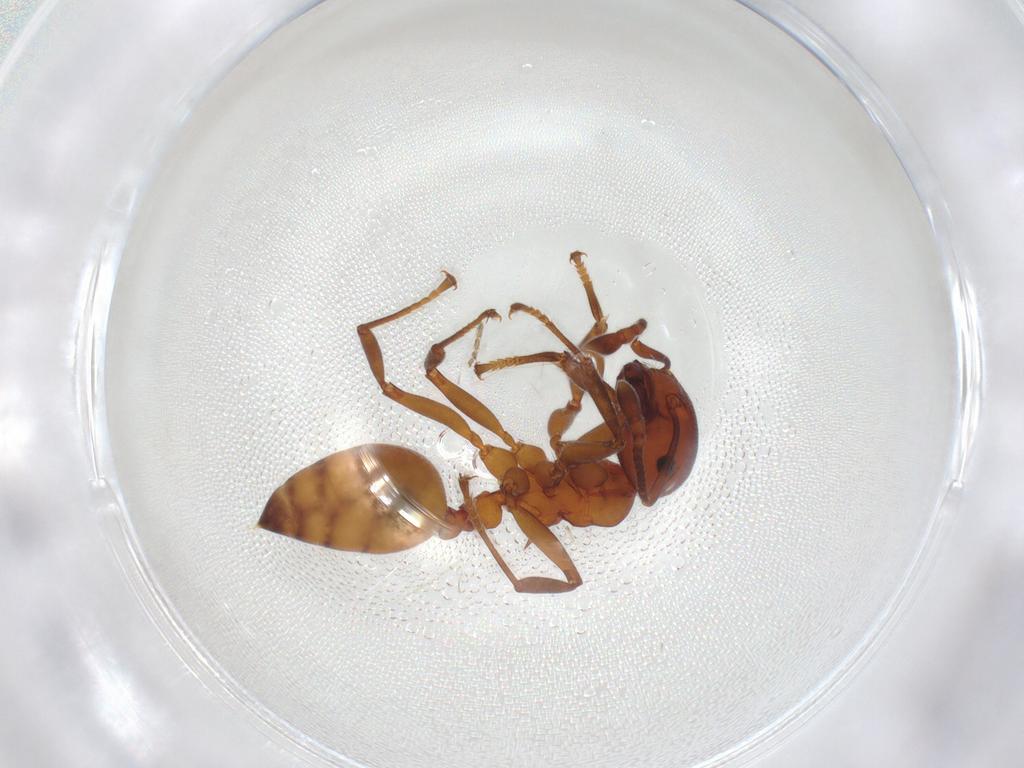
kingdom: Animalia
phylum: Arthropoda
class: Insecta
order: Hymenoptera
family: Formicidae
